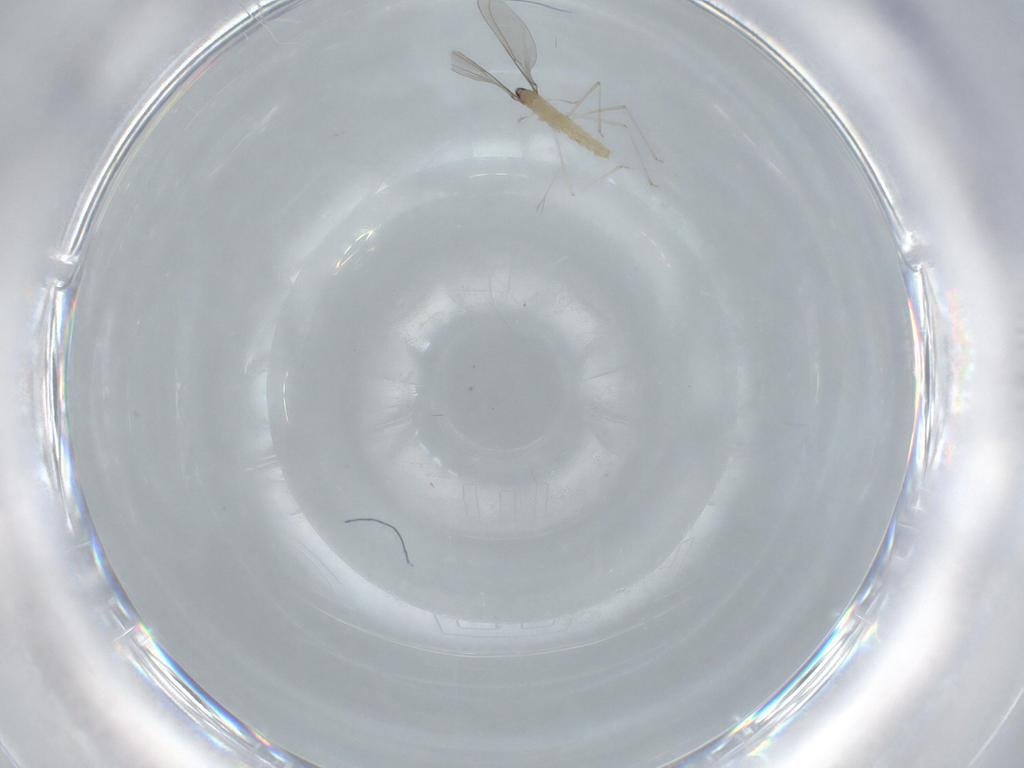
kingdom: Animalia
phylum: Arthropoda
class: Insecta
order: Diptera
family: Cecidomyiidae
